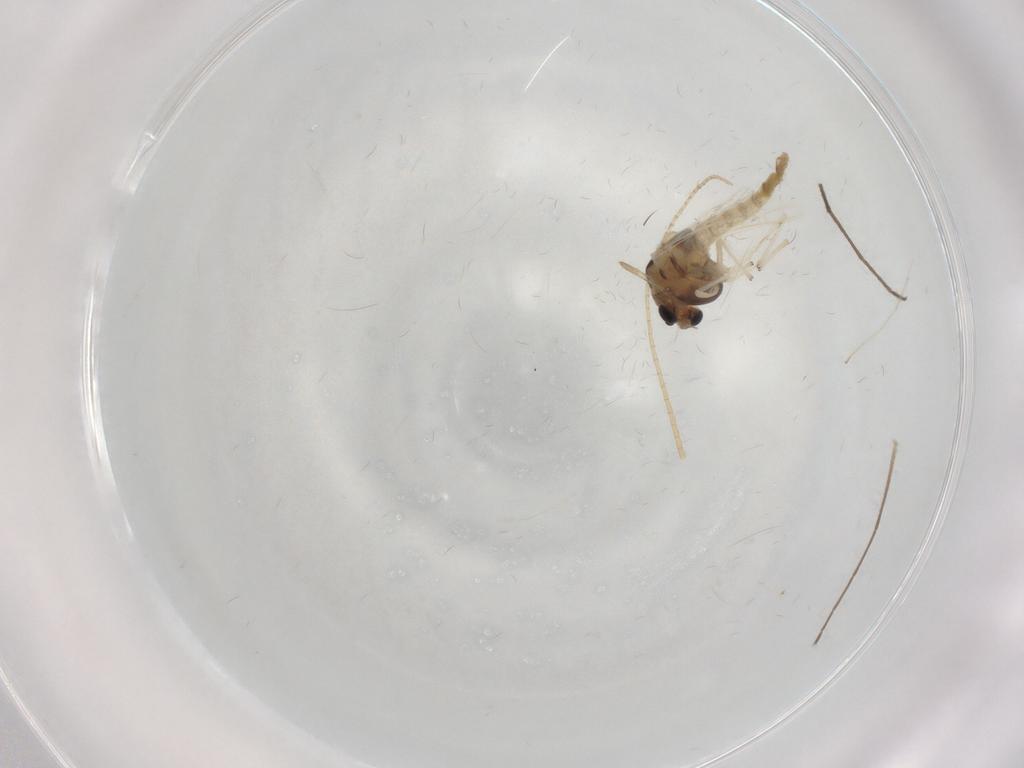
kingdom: Animalia
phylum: Arthropoda
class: Insecta
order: Diptera
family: Chironomidae
